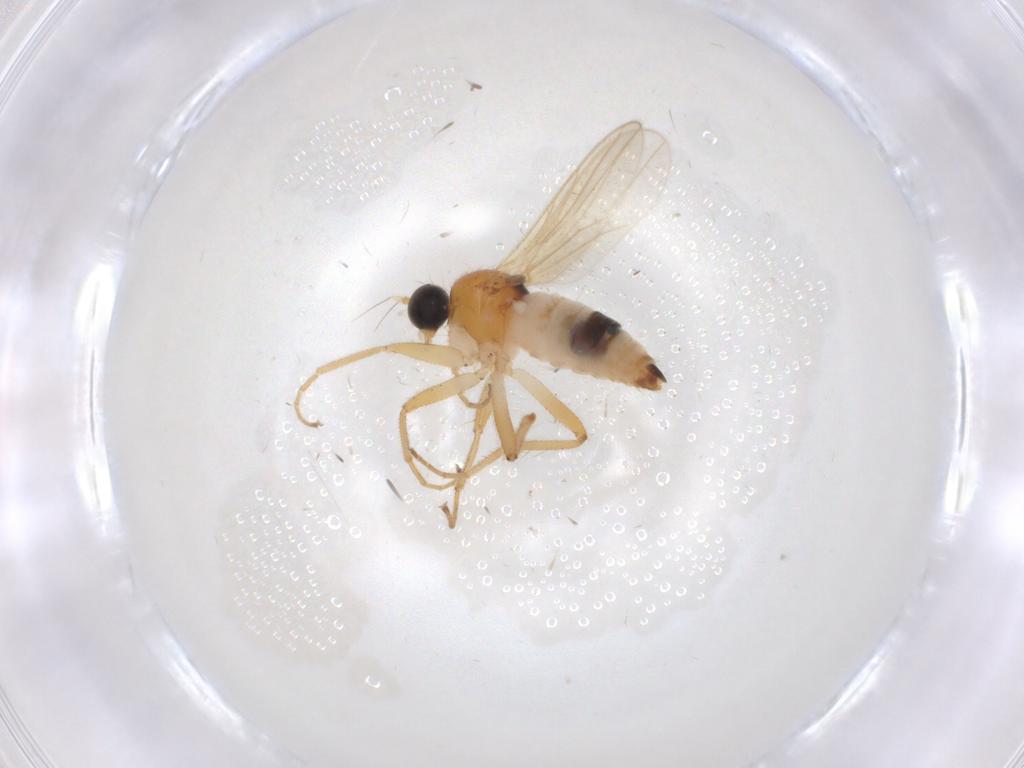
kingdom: Animalia
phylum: Arthropoda
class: Insecta
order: Diptera
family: Hybotidae
